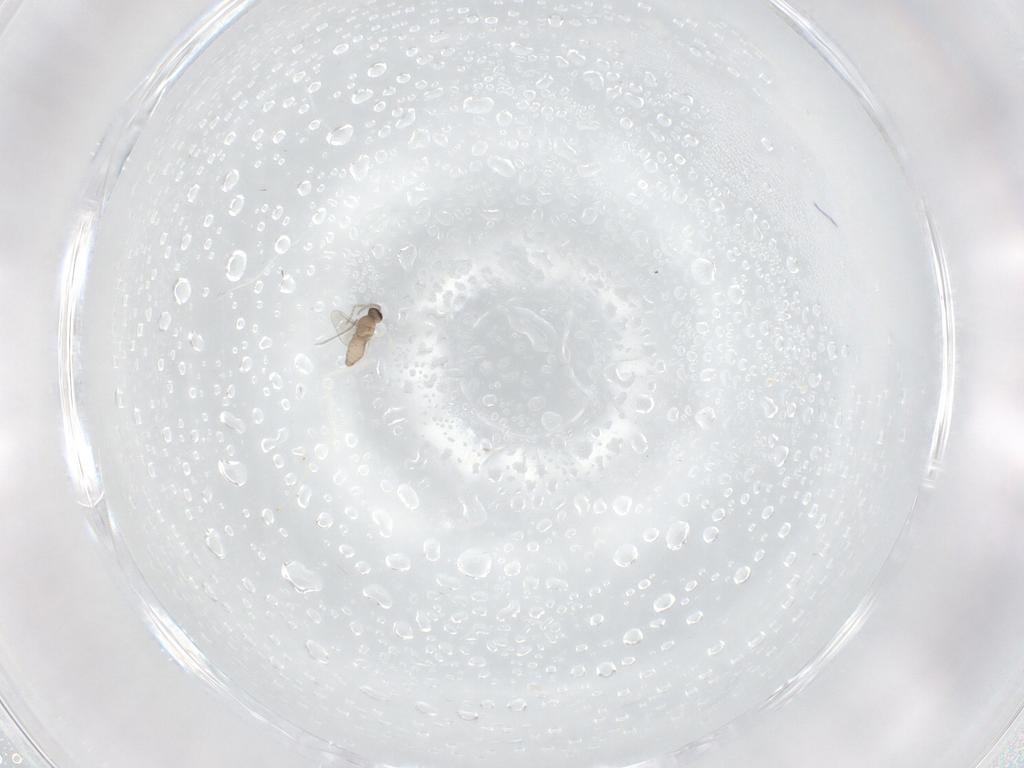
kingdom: Animalia
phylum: Arthropoda
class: Insecta
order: Diptera
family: Cecidomyiidae
